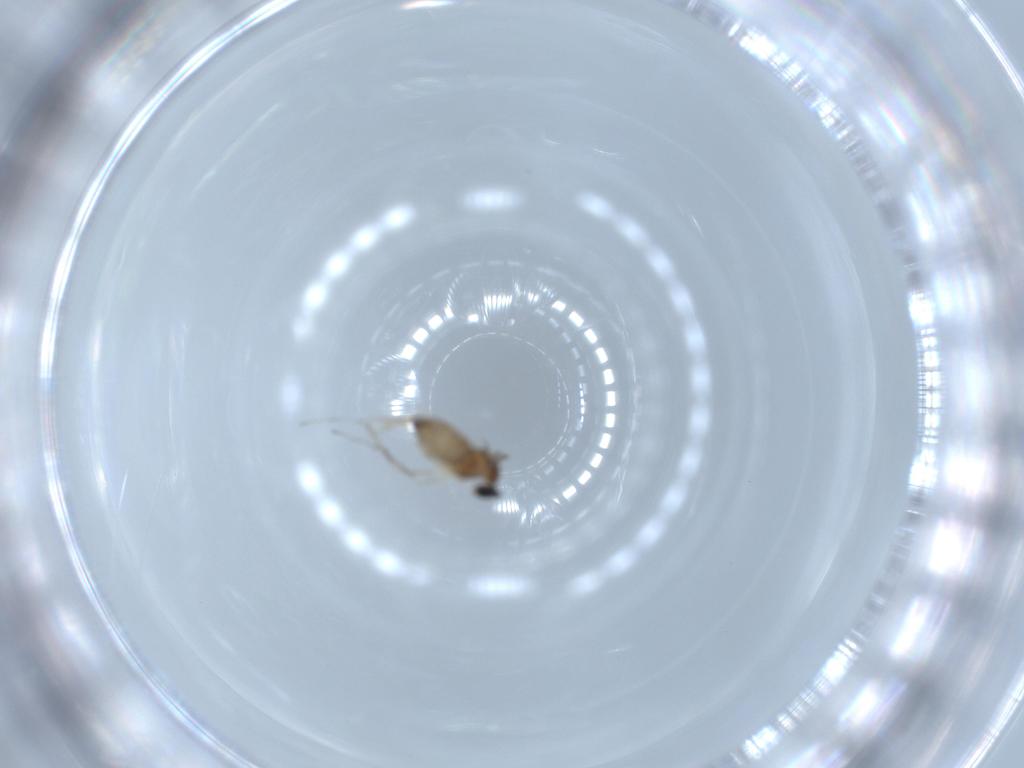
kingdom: Animalia
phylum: Arthropoda
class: Insecta
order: Diptera
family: Cecidomyiidae
